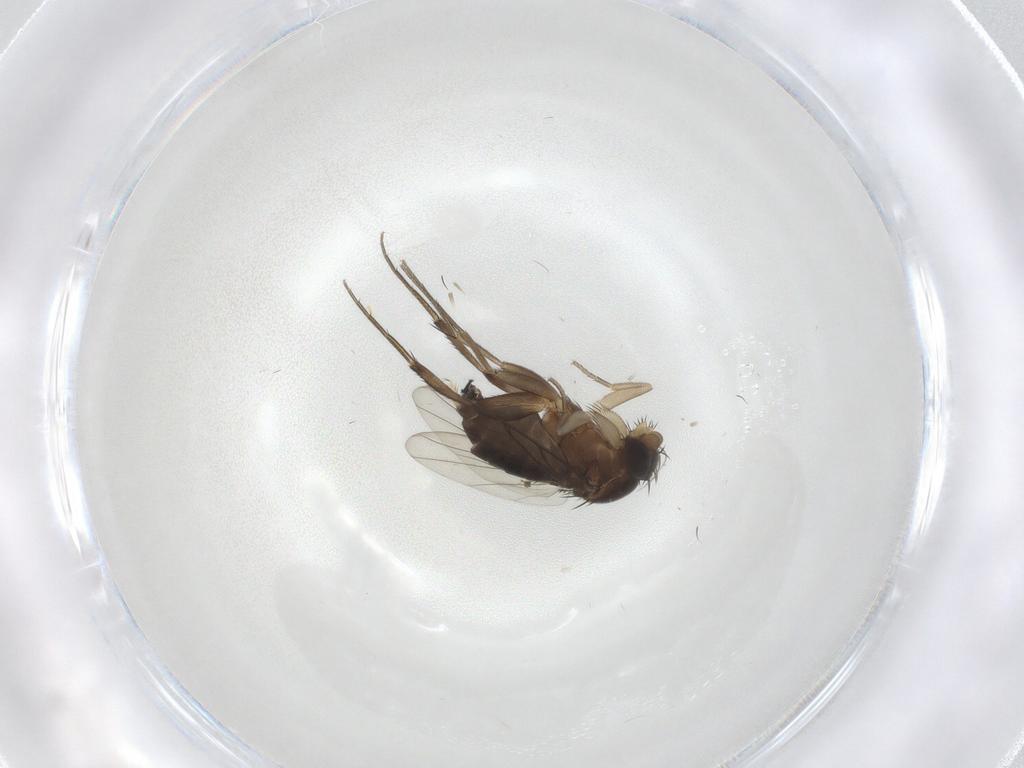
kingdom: Animalia
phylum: Arthropoda
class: Insecta
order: Diptera
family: Phoridae
